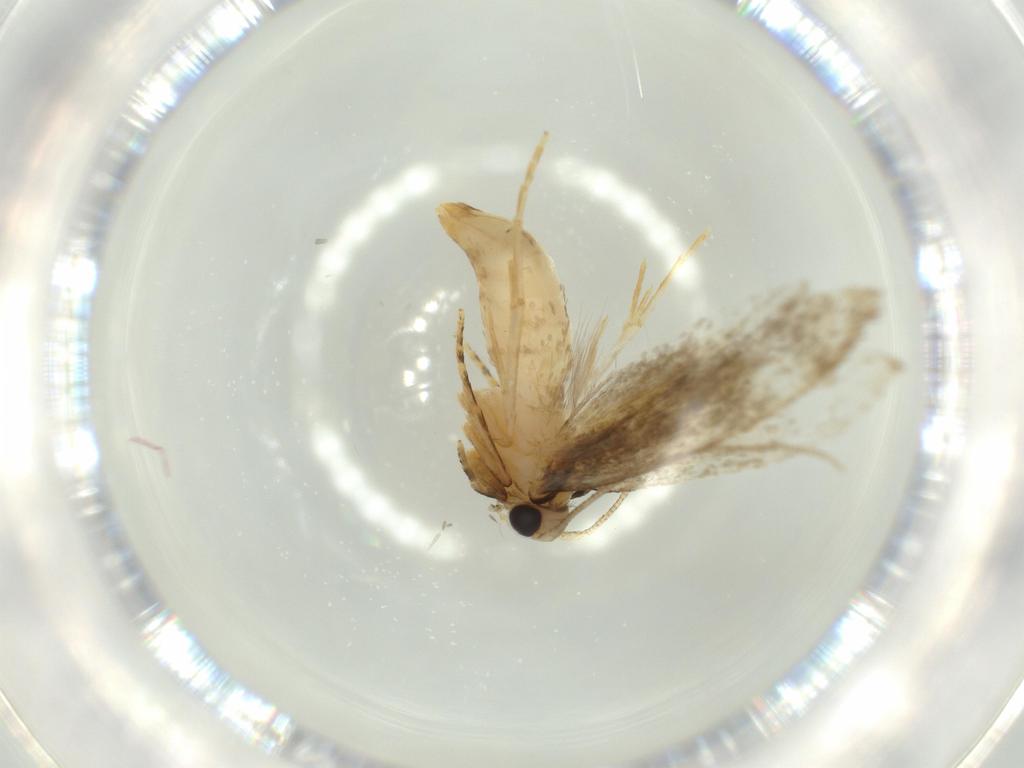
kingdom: Animalia
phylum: Arthropoda
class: Insecta
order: Lepidoptera
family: Tineidae
